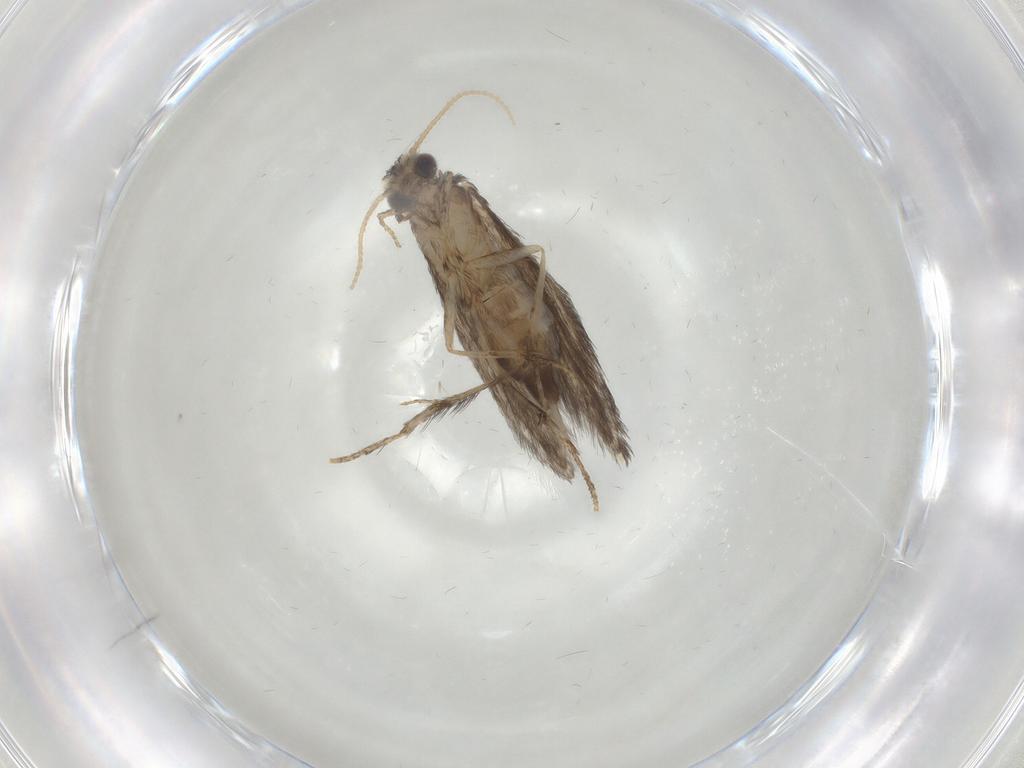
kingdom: Animalia
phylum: Arthropoda
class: Insecta
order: Trichoptera
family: Hydroptilidae
